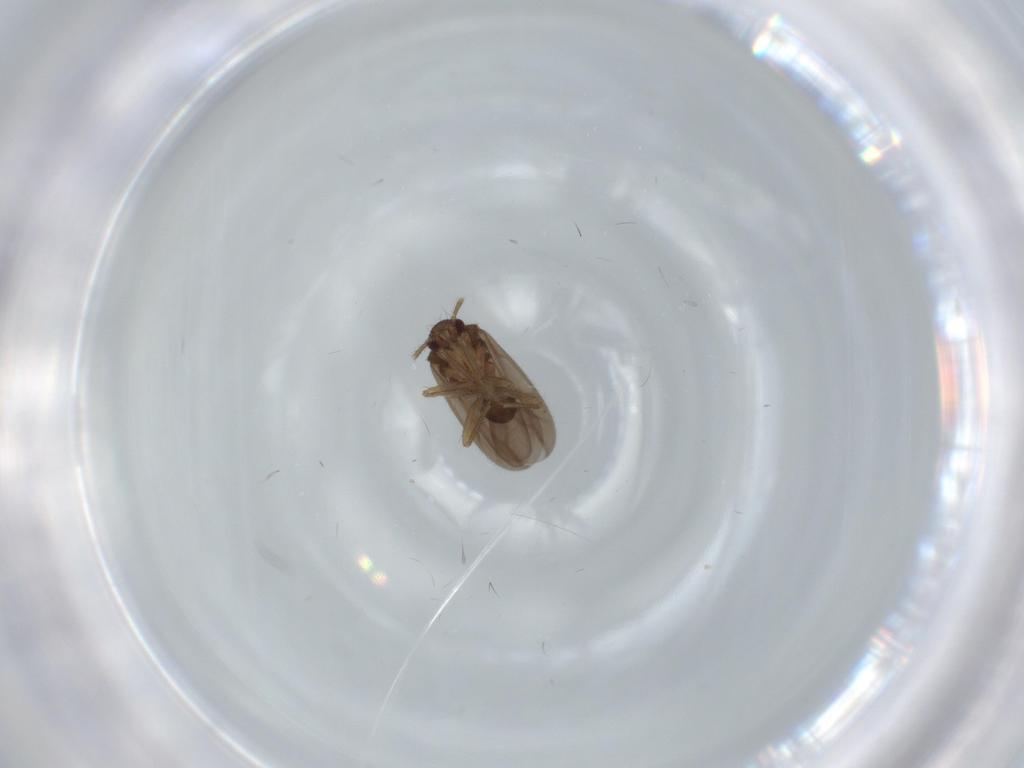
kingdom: Animalia
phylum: Arthropoda
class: Insecta
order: Hemiptera
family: Ceratocombidae
